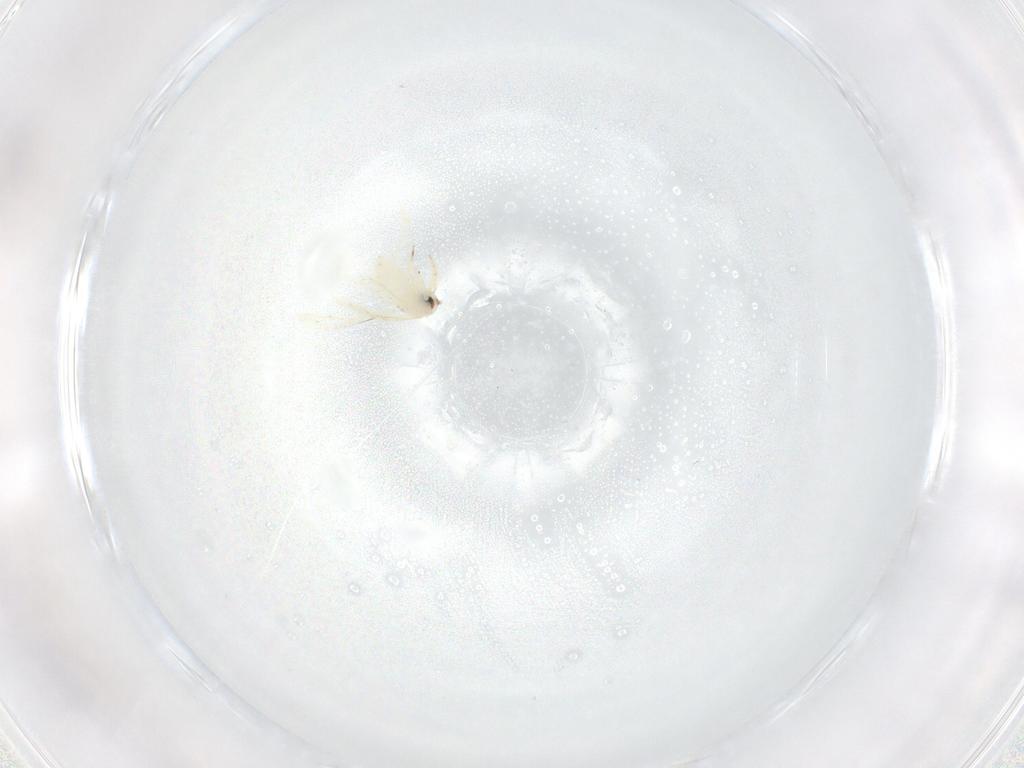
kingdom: Animalia
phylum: Arthropoda
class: Insecta
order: Hemiptera
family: Aleyrodidae
